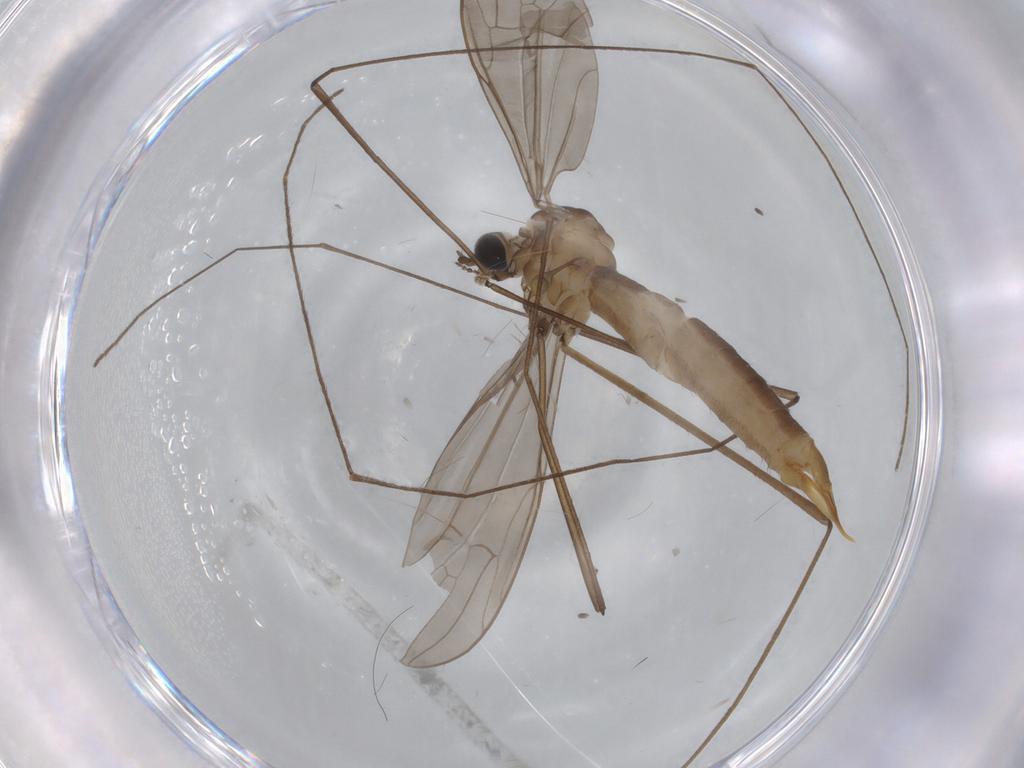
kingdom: Animalia
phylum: Arthropoda
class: Insecta
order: Diptera
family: Limoniidae
